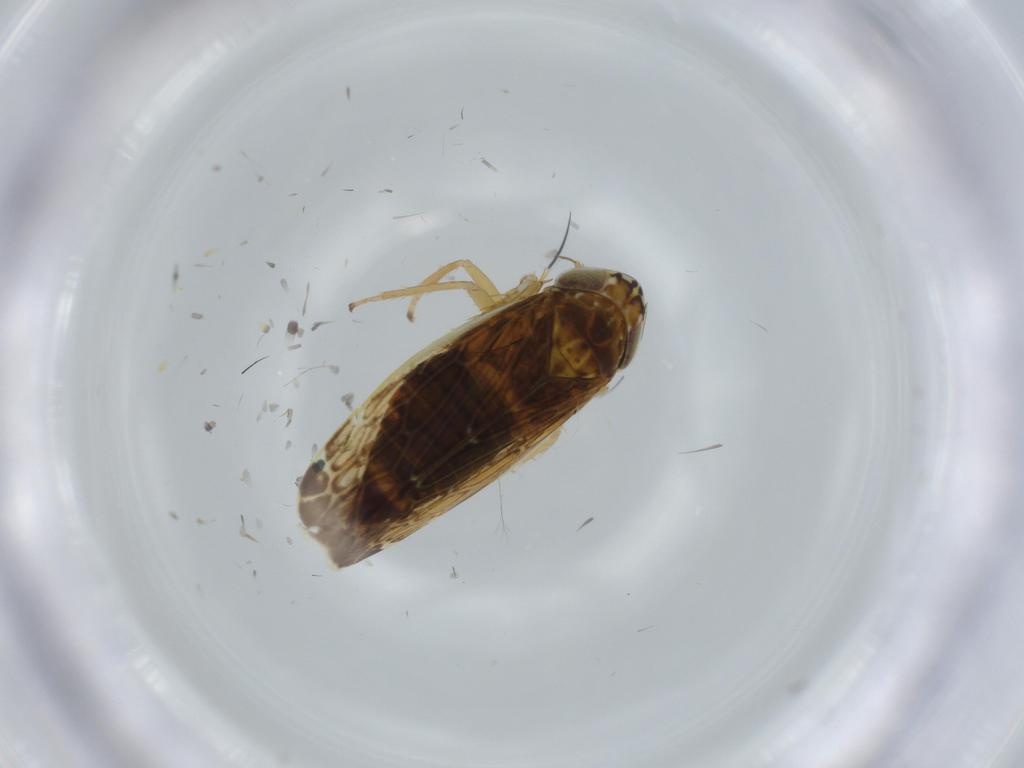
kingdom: Animalia
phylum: Arthropoda
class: Insecta
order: Hemiptera
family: Cicadellidae
